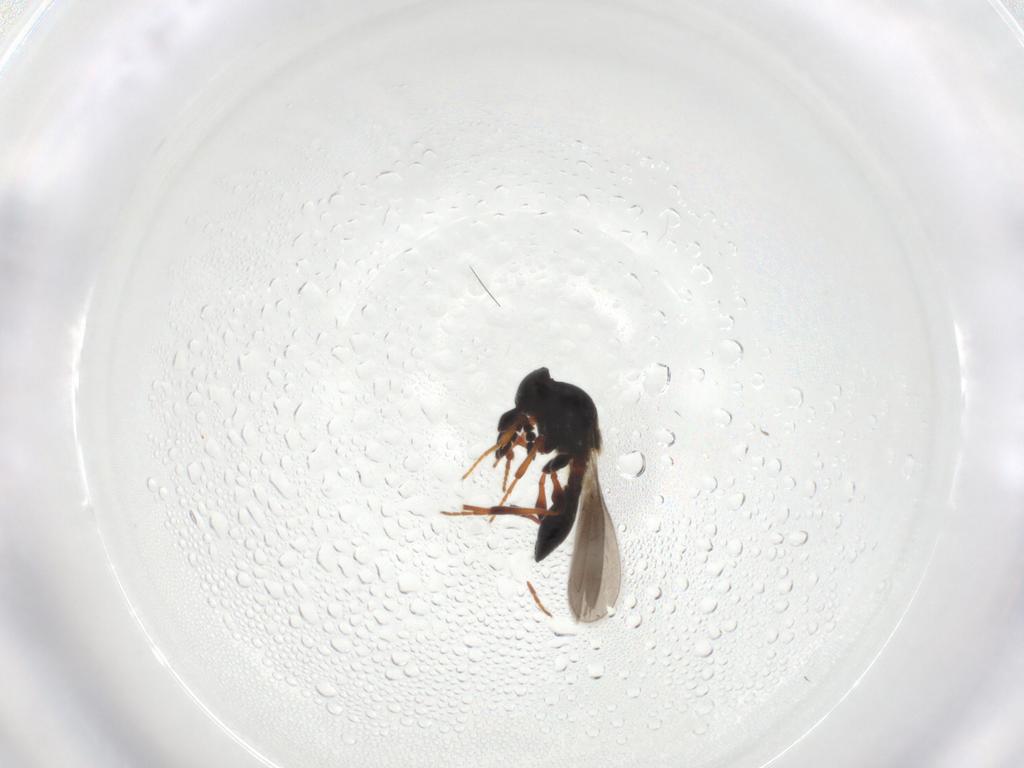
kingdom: Animalia
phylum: Arthropoda
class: Insecta
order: Hymenoptera
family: Platygastridae
